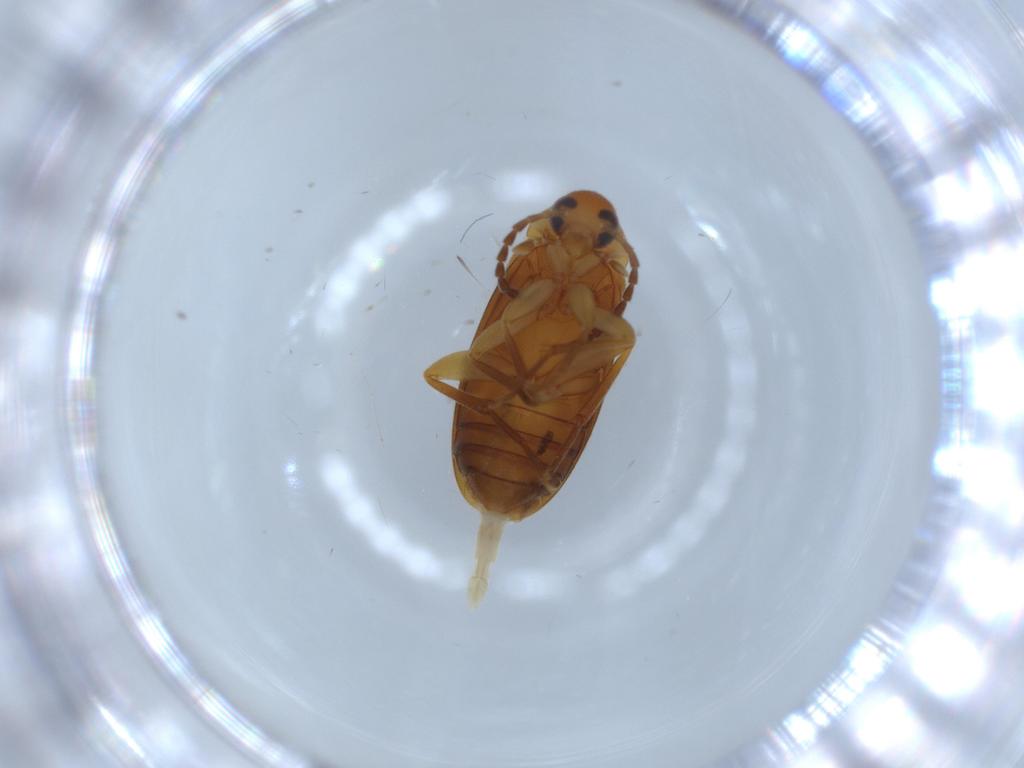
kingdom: Animalia
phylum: Arthropoda
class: Insecta
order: Coleoptera
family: Scraptiidae
